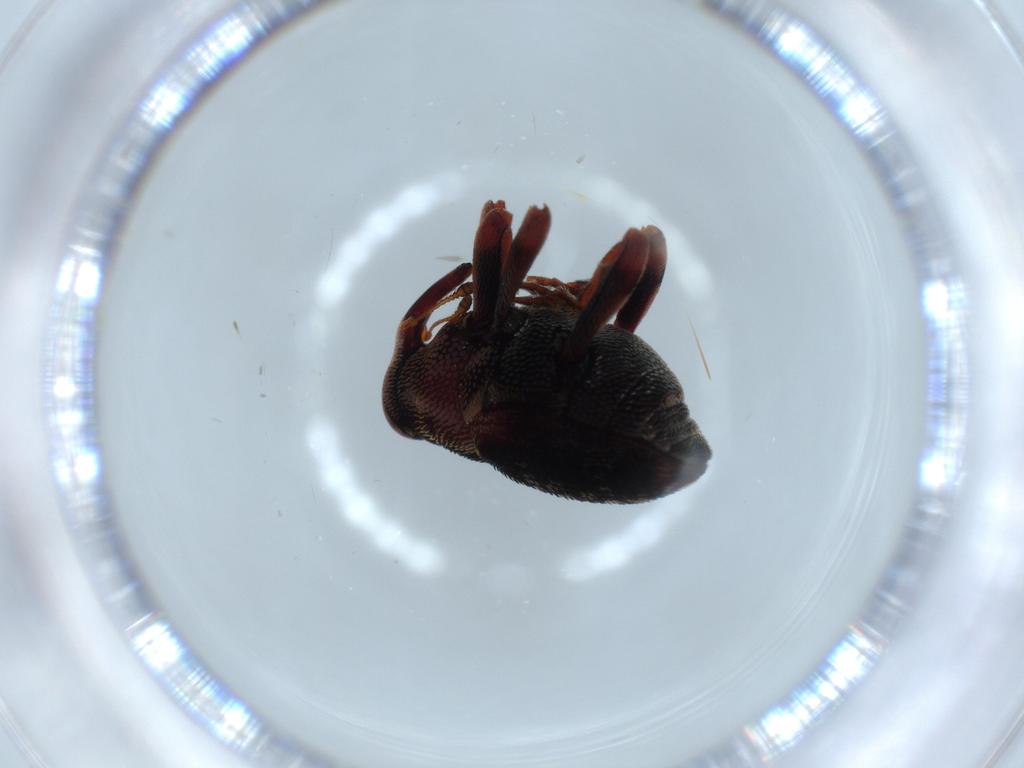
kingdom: Animalia
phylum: Arthropoda
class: Insecta
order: Coleoptera
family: Curculionidae
